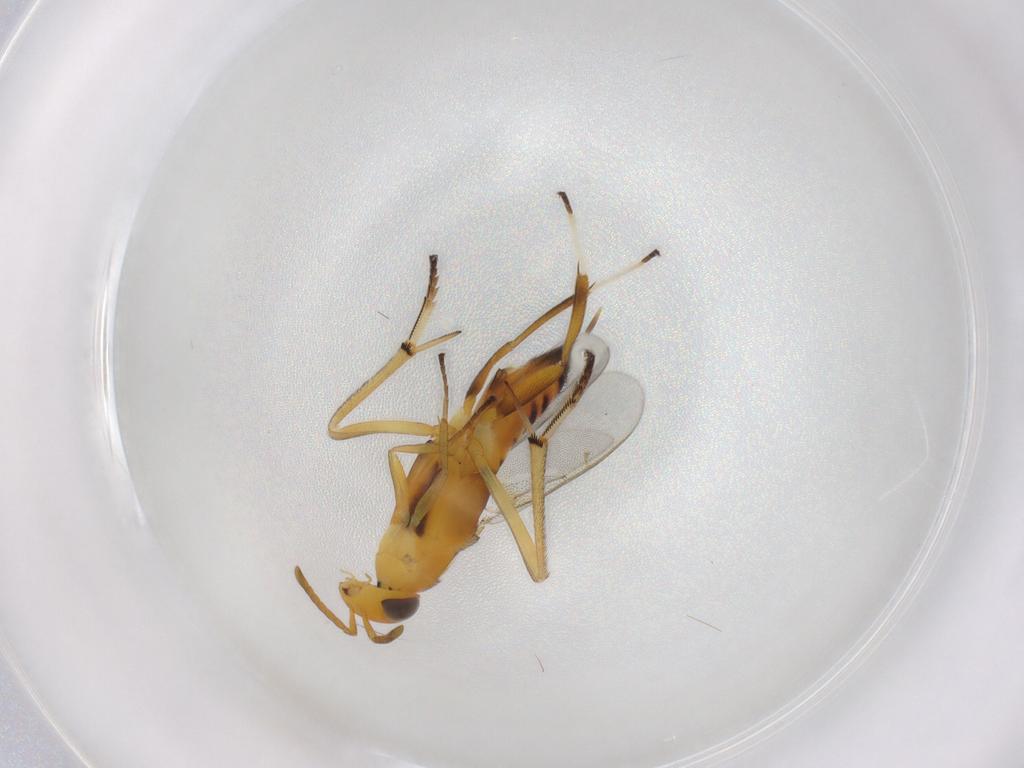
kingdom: Animalia
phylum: Arthropoda
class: Insecta
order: Hymenoptera
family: Eupelmidae
